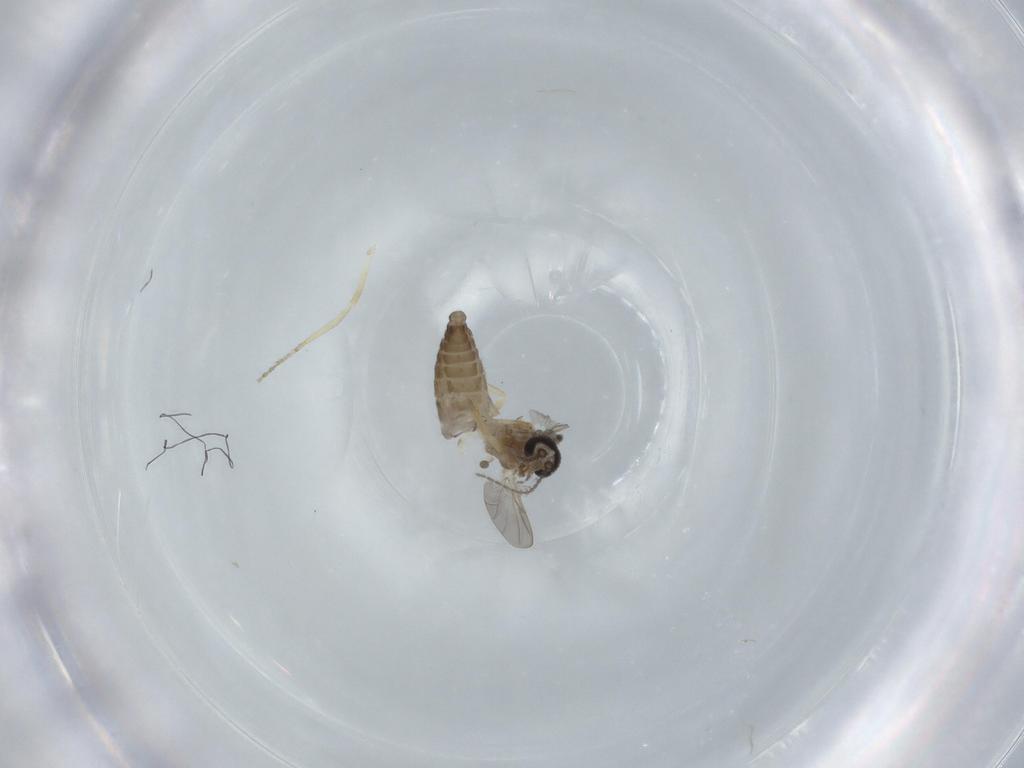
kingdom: Animalia
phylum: Arthropoda
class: Insecta
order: Diptera
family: Ceratopogonidae
